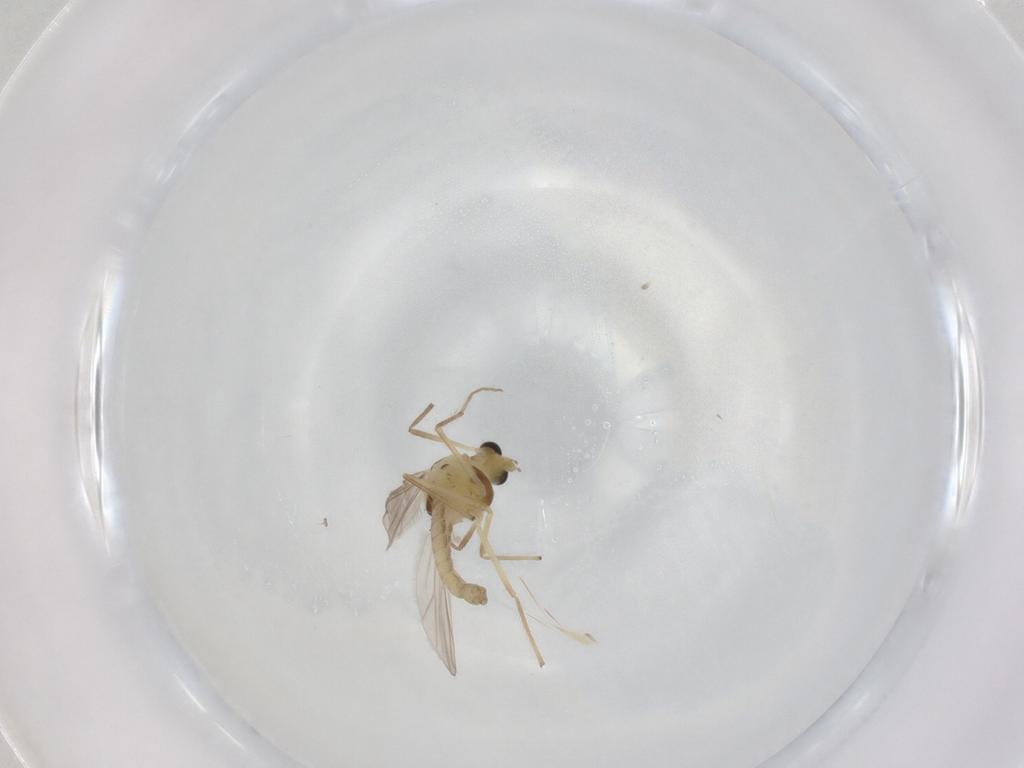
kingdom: Animalia
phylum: Arthropoda
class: Insecta
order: Diptera
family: Chironomidae
